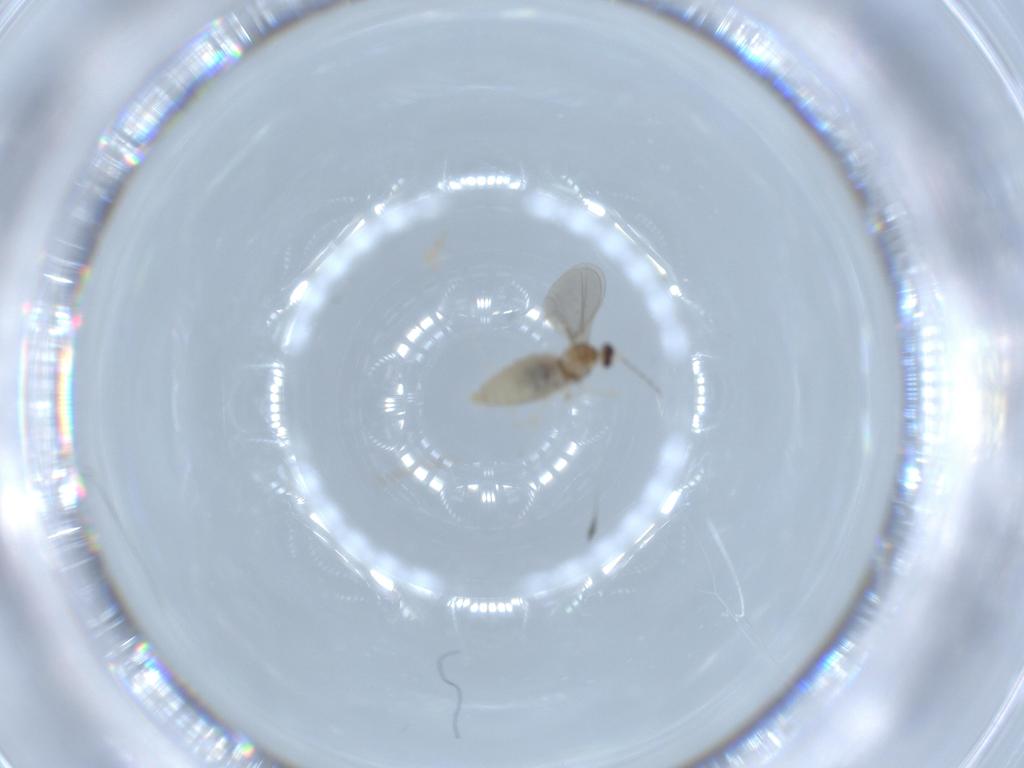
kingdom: Animalia
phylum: Arthropoda
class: Insecta
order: Diptera
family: Cecidomyiidae
